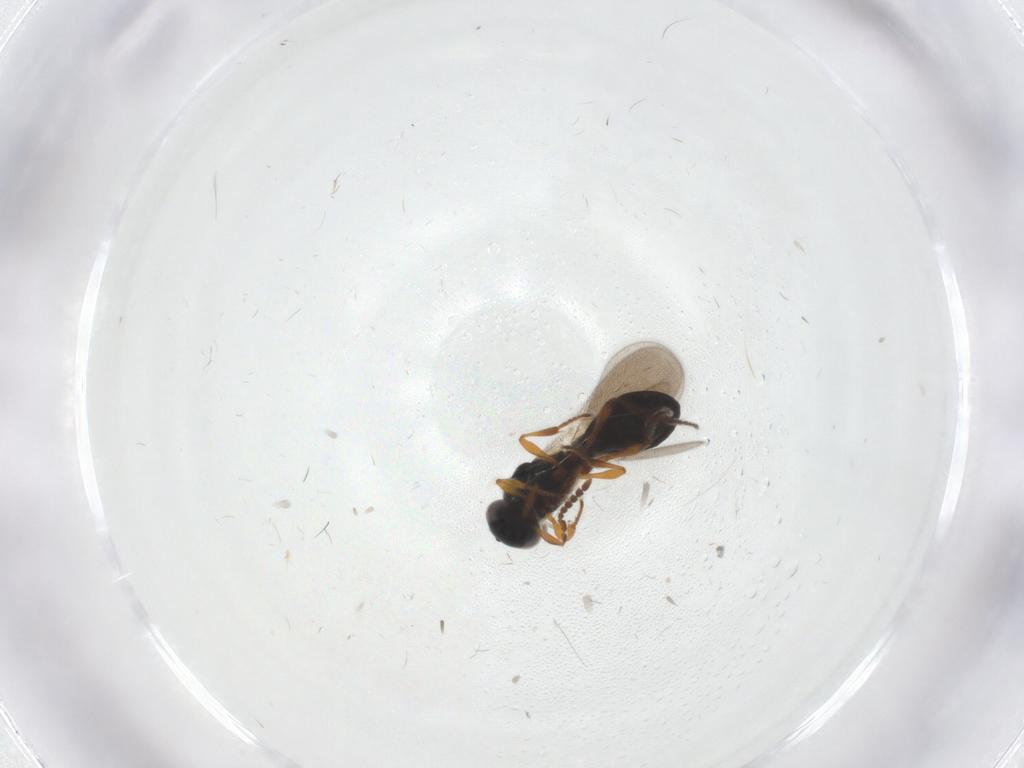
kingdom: Animalia
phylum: Arthropoda
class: Insecta
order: Hymenoptera
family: Platygastridae
